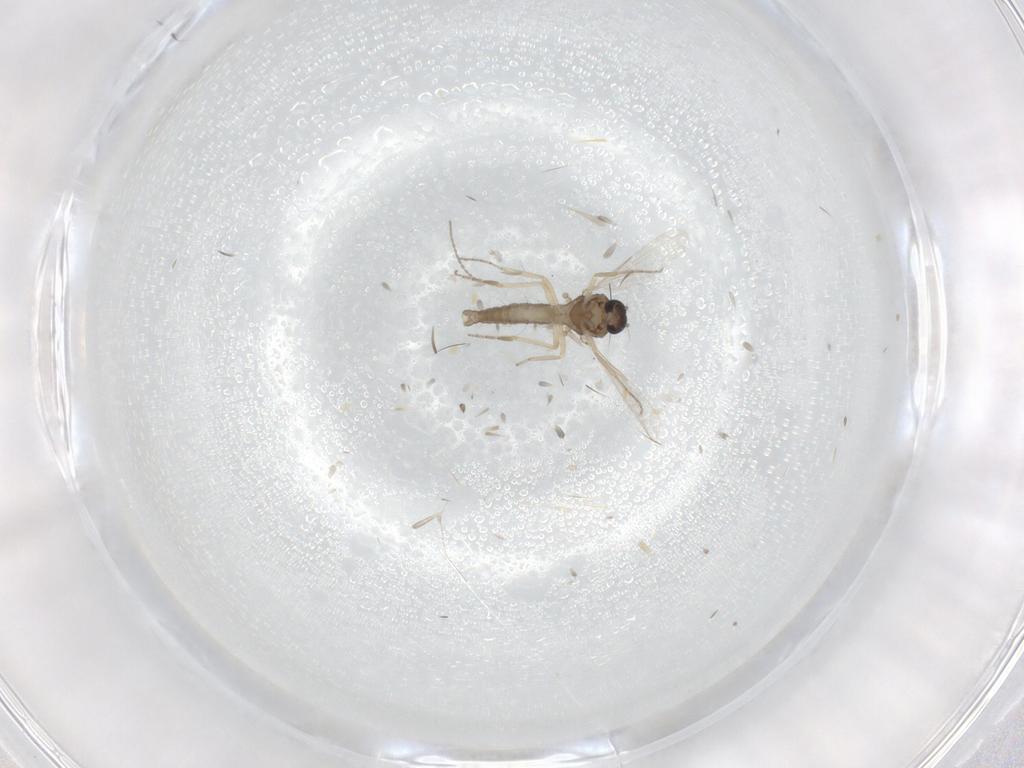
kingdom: Animalia
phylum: Arthropoda
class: Insecta
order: Diptera
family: Ceratopogonidae
